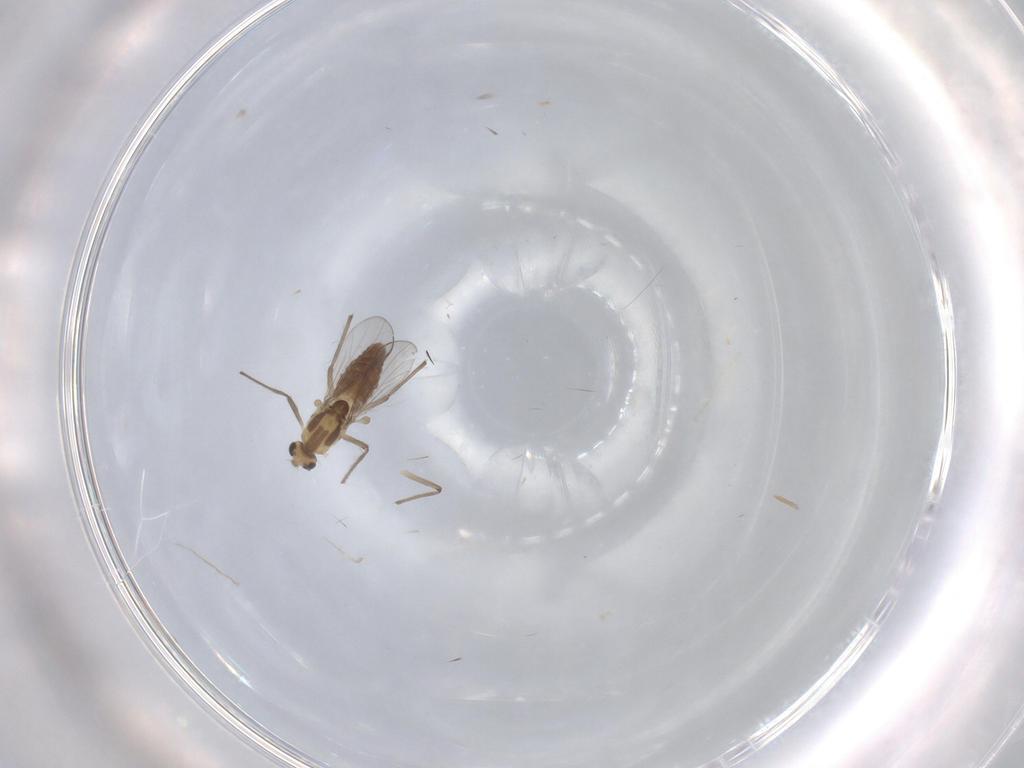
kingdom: Animalia
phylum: Arthropoda
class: Insecta
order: Diptera
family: Chironomidae
